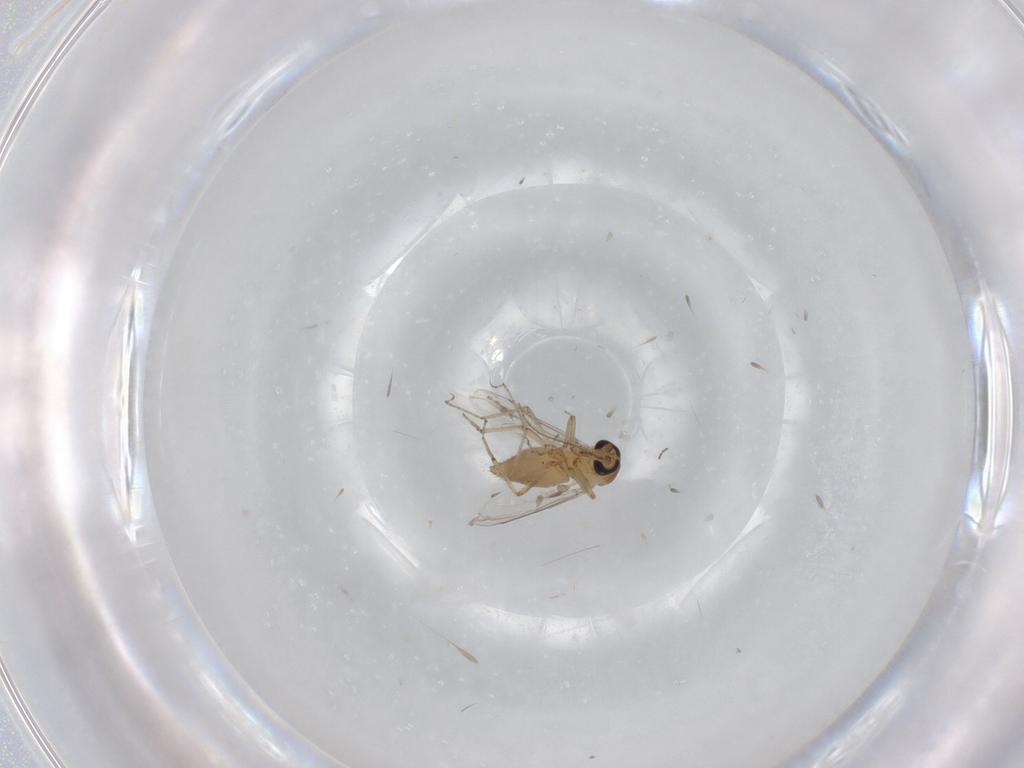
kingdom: Animalia
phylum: Arthropoda
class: Insecta
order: Diptera
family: Cecidomyiidae
